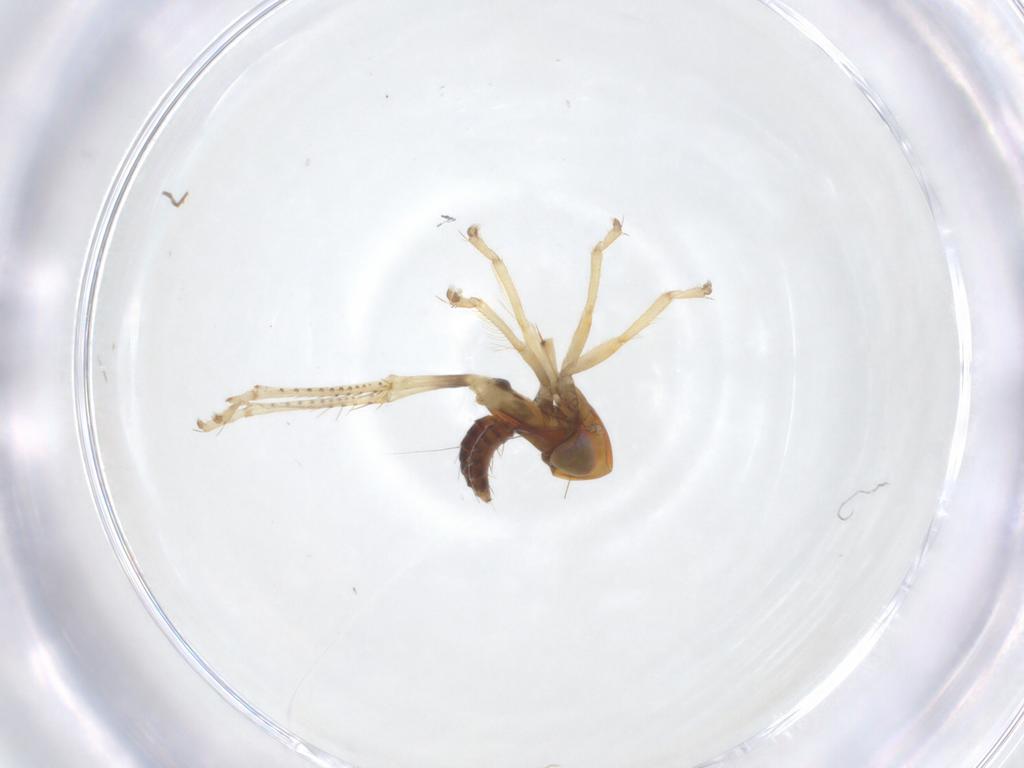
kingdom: Animalia
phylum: Arthropoda
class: Insecta
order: Hemiptera
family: Cicadellidae
